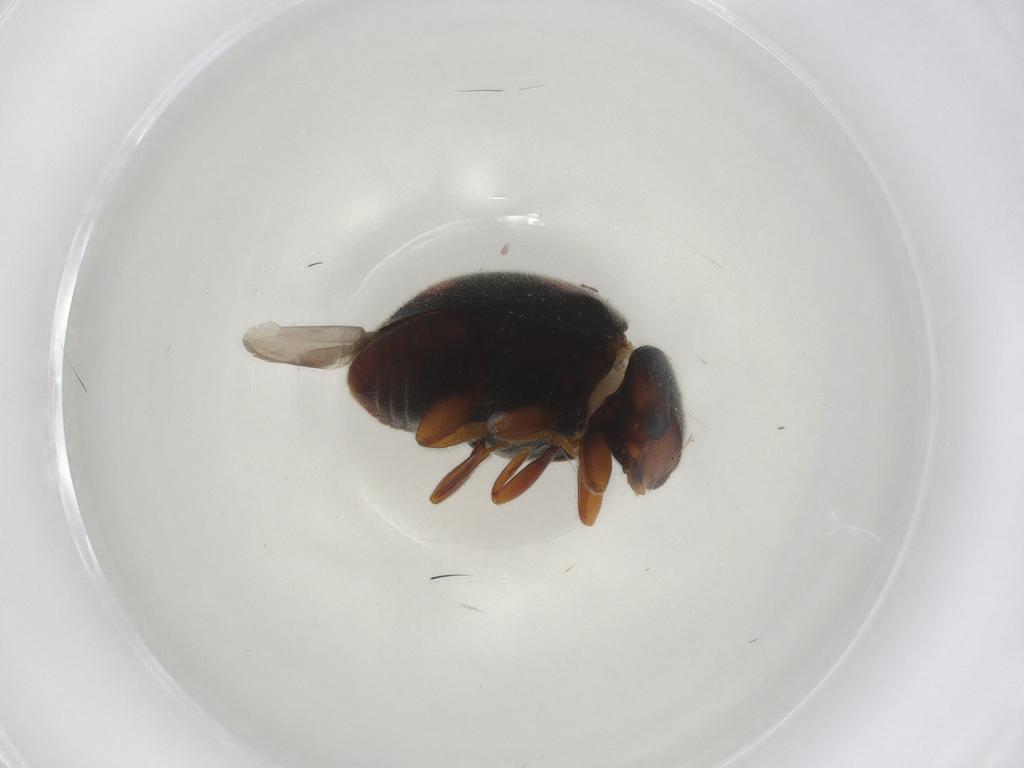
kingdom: Animalia
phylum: Arthropoda
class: Insecta
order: Coleoptera
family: Coccinellidae
